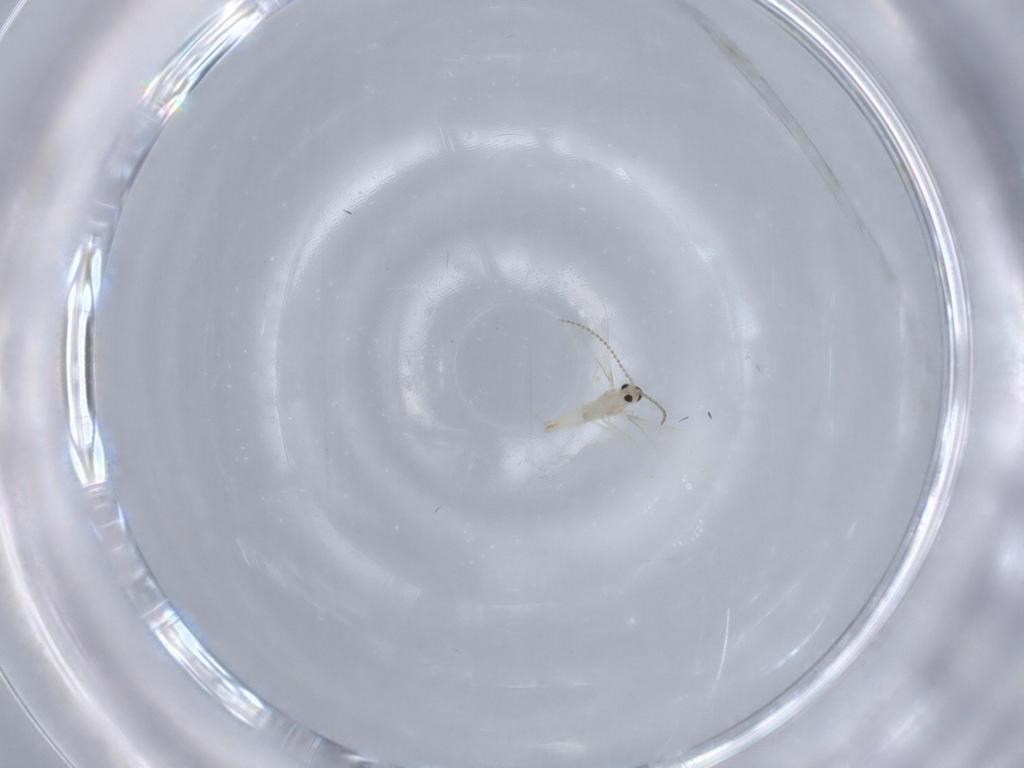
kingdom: Animalia
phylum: Arthropoda
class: Insecta
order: Diptera
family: Cecidomyiidae
